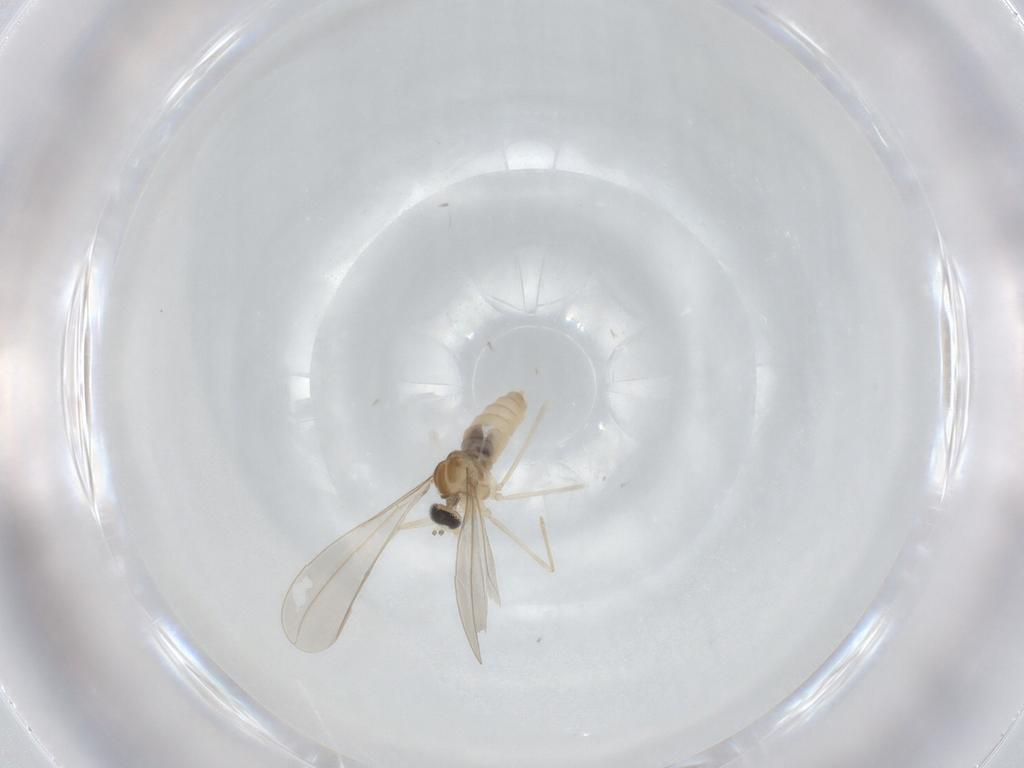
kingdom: Animalia
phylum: Arthropoda
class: Insecta
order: Diptera
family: Cecidomyiidae
